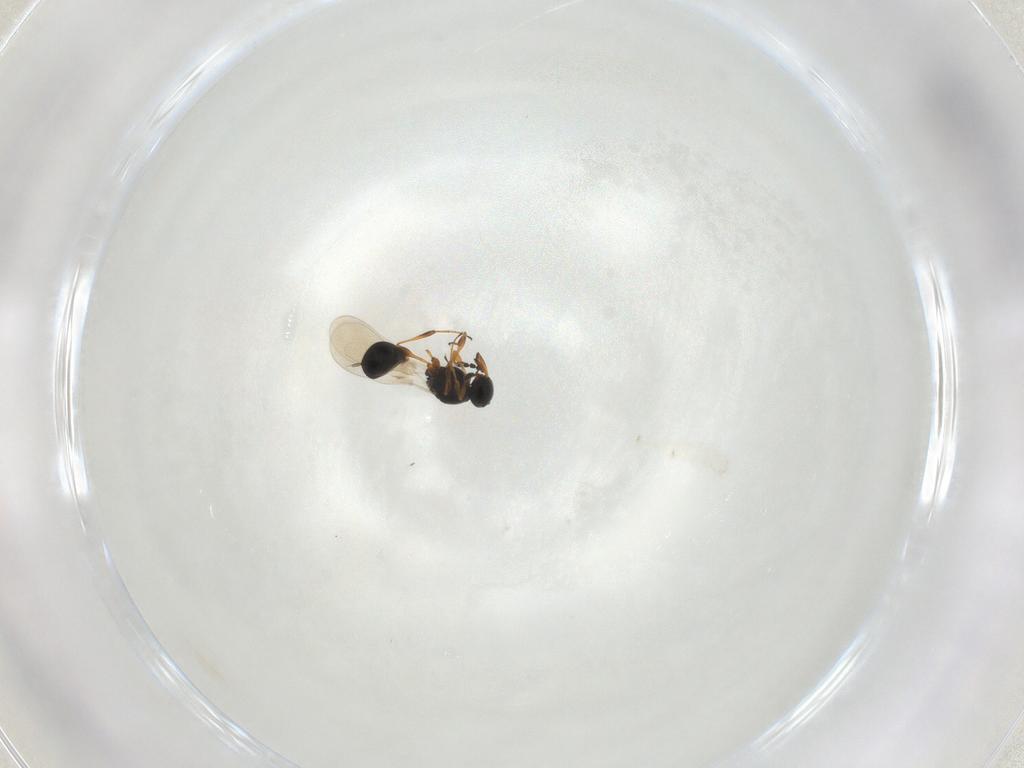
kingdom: Animalia
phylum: Arthropoda
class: Insecta
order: Hymenoptera
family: Platygastridae
